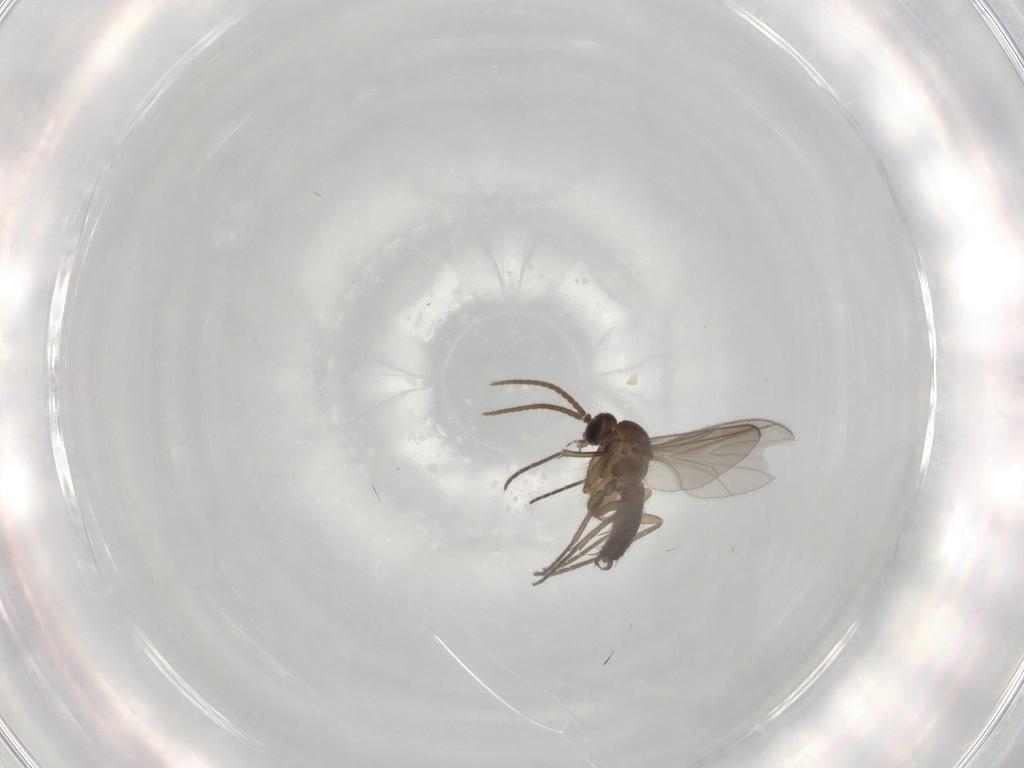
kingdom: Animalia
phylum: Arthropoda
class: Insecta
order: Diptera
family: Sciaridae
